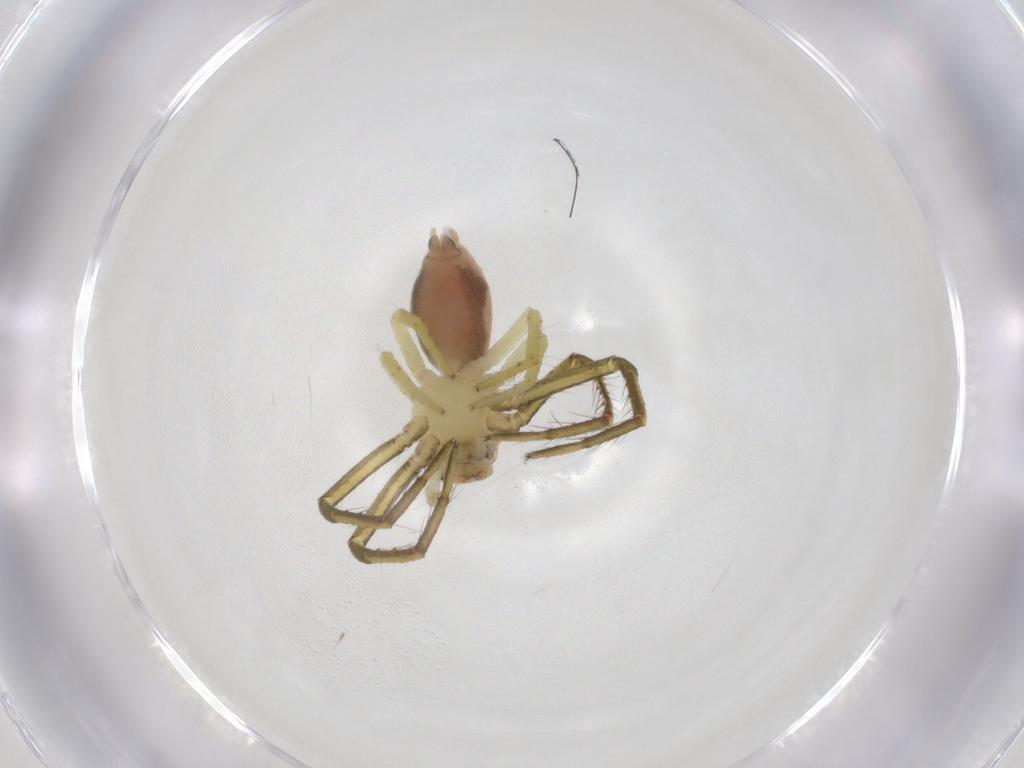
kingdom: Animalia
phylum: Arthropoda
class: Arachnida
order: Araneae
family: Thomisidae
